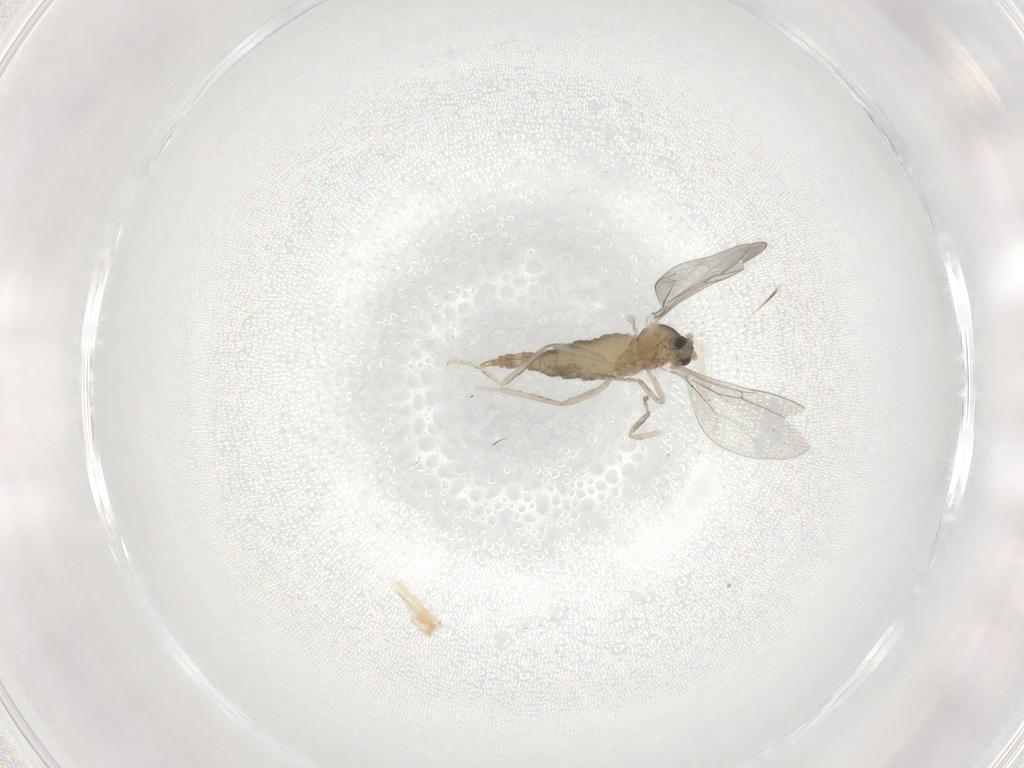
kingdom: Animalia
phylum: Arthropoda
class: Insecta
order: Diptera
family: Cecidomyiidae
